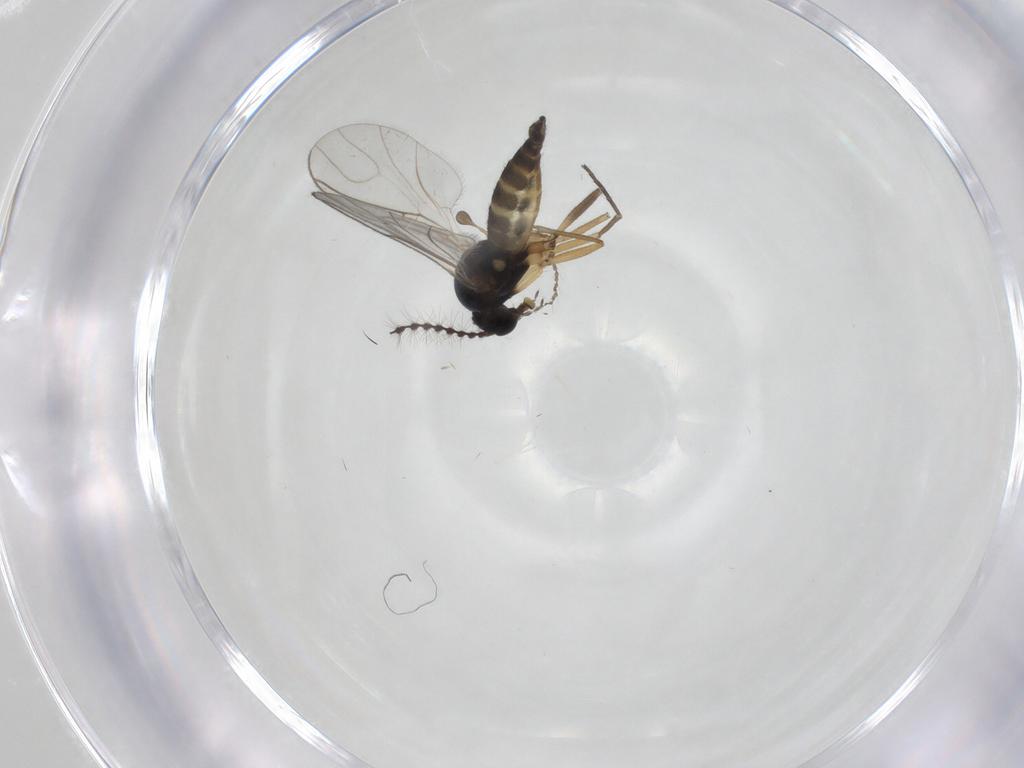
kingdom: Animalia
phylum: Arthropoda
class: Insecta
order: Diptera
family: Cecidomyiidae
